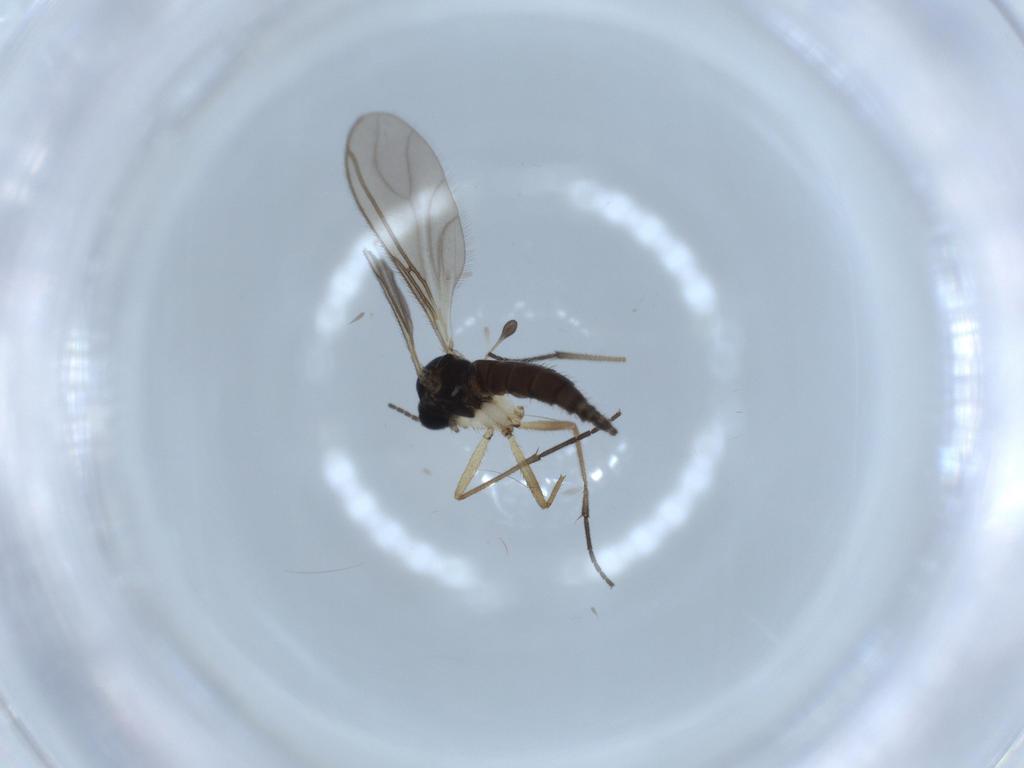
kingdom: Animalia
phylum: Arthropoda
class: Insecta
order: Diptera
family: Sciaridae
